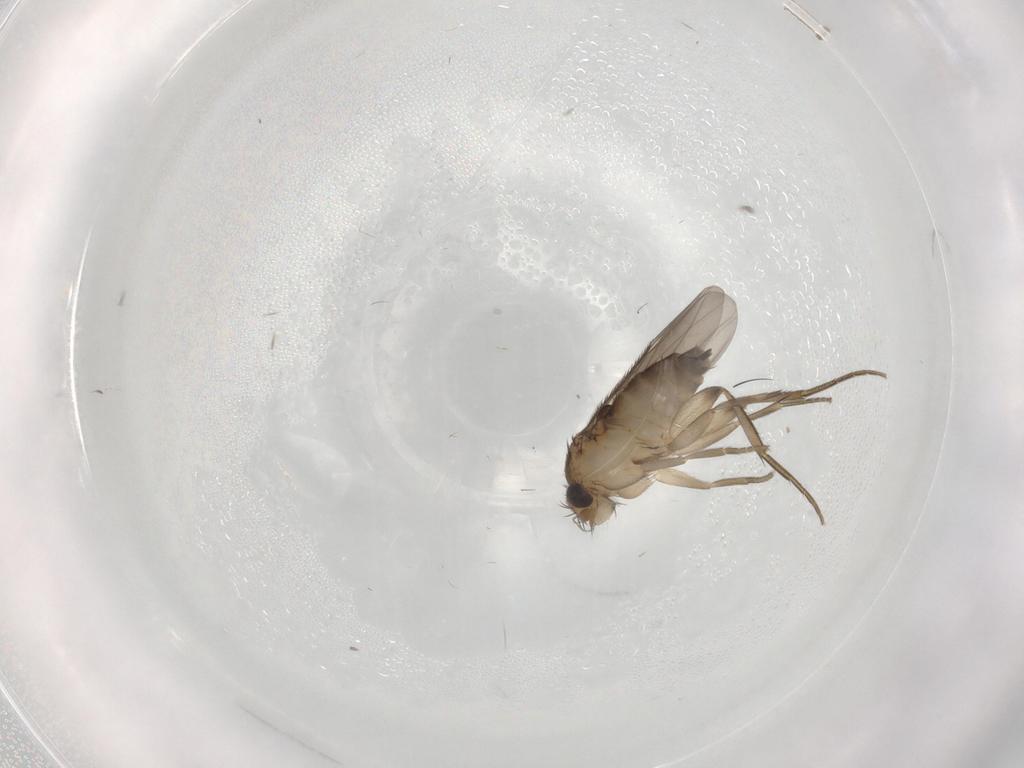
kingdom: Animalia
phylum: Arthropoda
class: Insecta
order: Diptera
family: Phoridae
